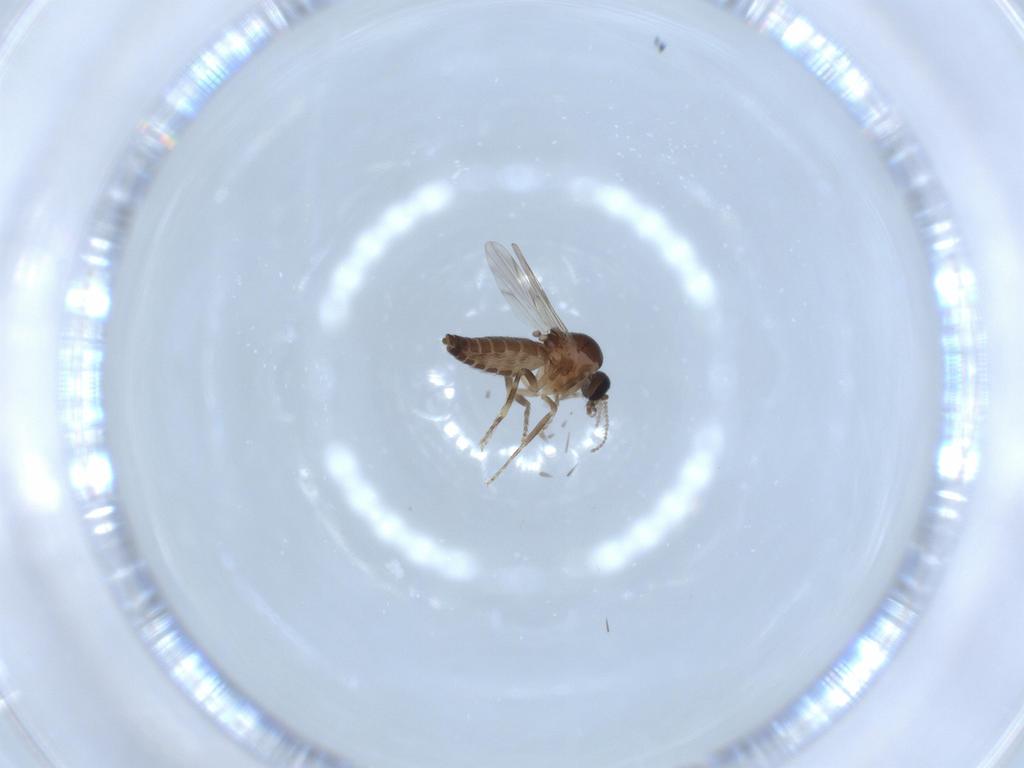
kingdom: Animalia
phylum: Arthropoda
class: Insecta
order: Diptera
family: Ceratopogonidae
